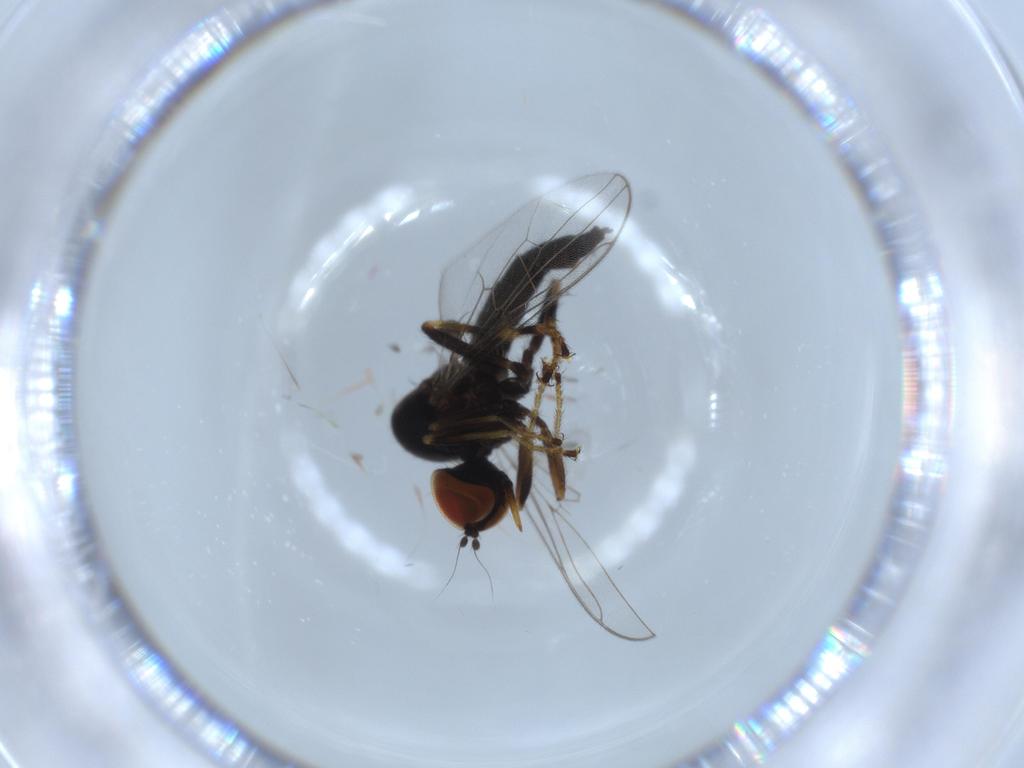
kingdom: Animalia
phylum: Arthropoda
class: Insecta
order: Diptera
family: Hybotidae
